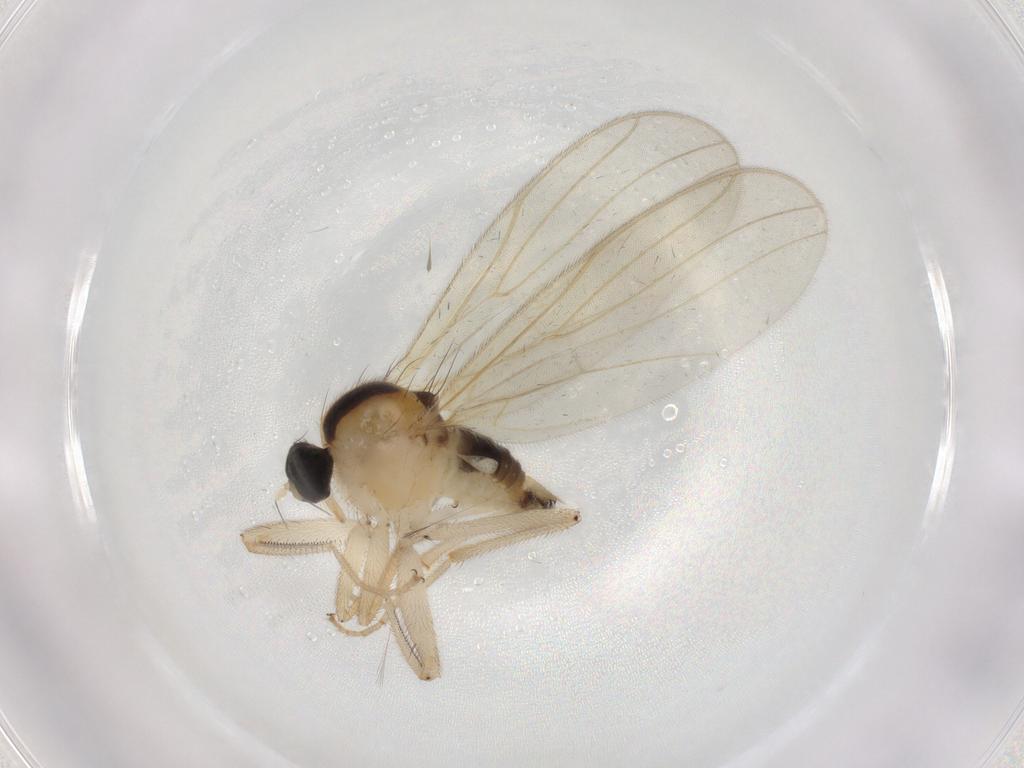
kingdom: Animalia
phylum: Arthropoda
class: Insecta
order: Diptera
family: Hybotidae
